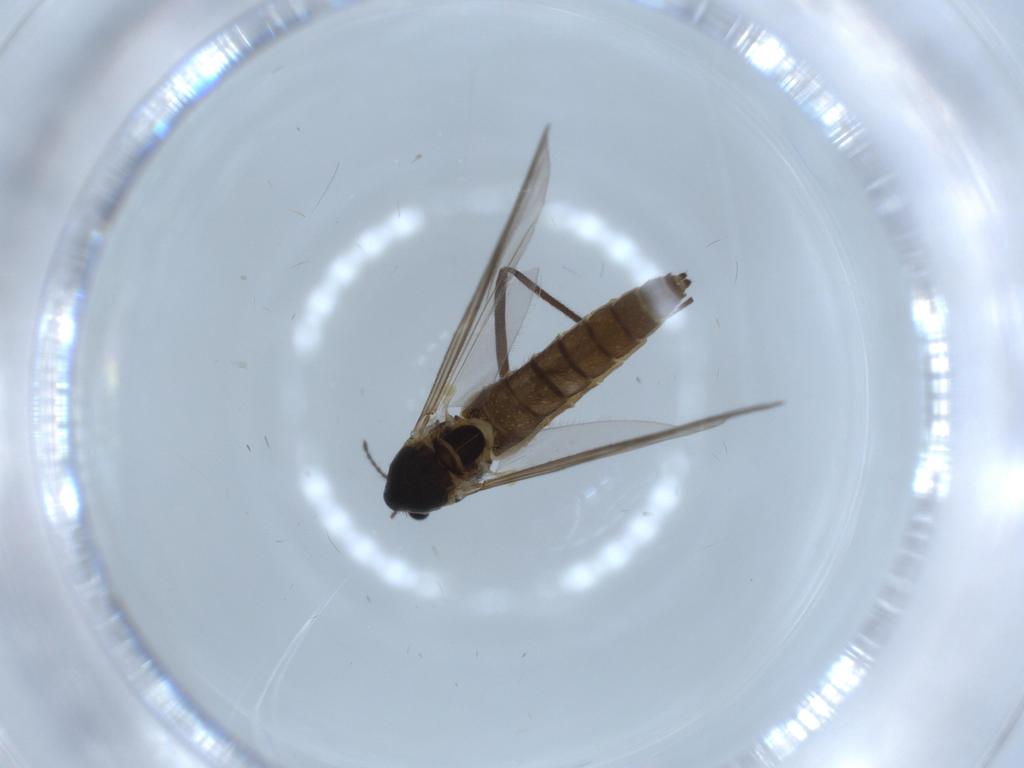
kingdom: Animalia
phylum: Arthropoda
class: Insecta
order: Diptera
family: Chironomidae
